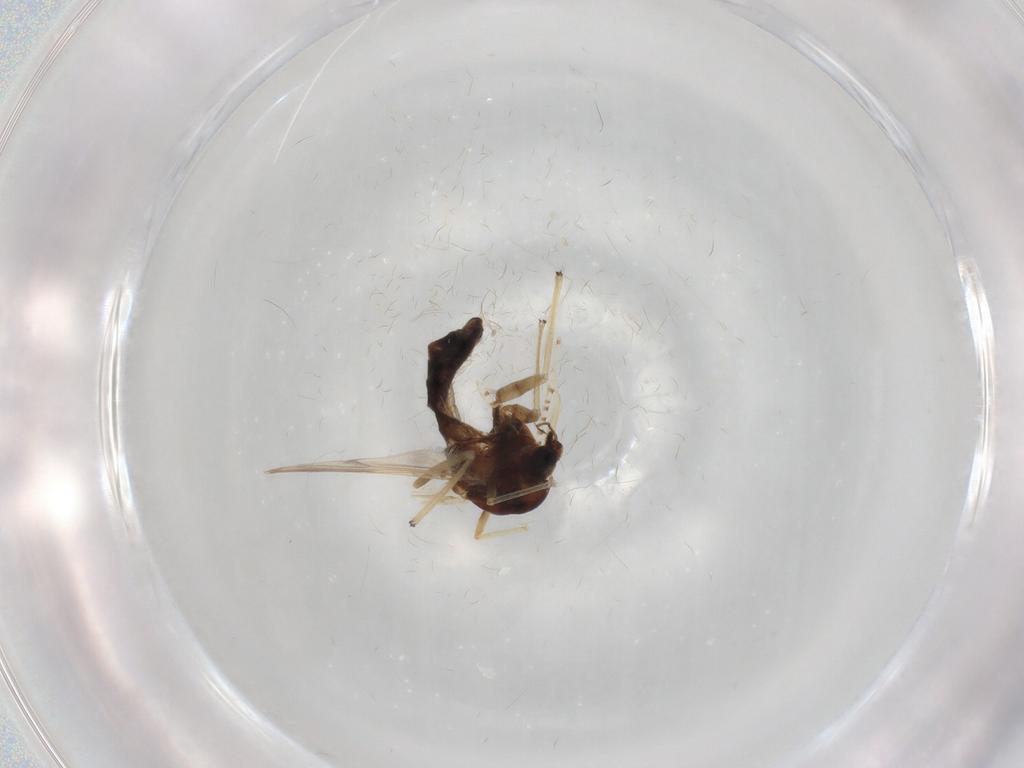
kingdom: Animalia
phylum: Arthropoda
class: Insecta
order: Diptera
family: Chironomidae
